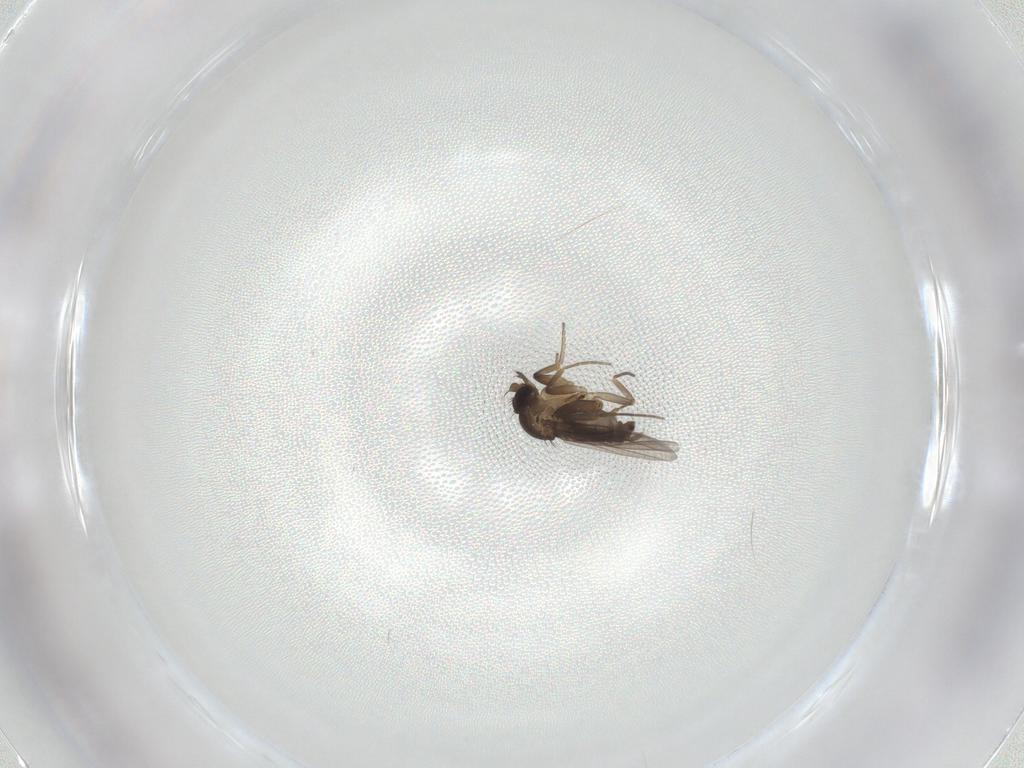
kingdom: Animalia
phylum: Arthropoda
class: Insecta
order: Diptera
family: Phoridae
